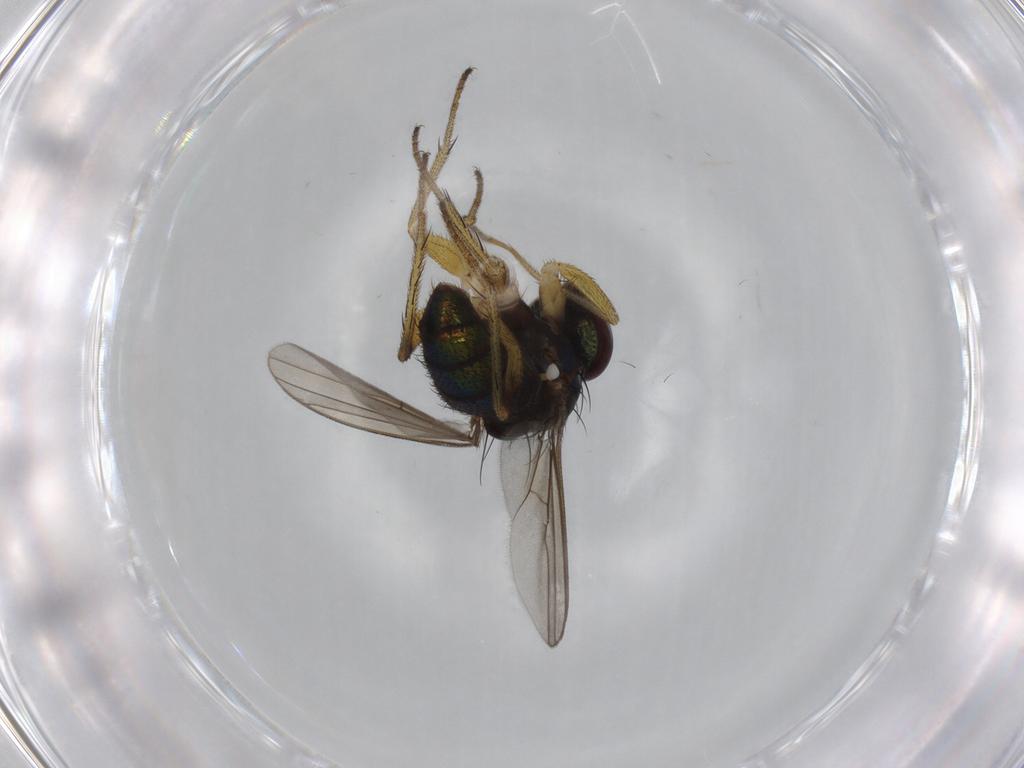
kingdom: Animalia
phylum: Arthropoda
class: Insecta
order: Diptera
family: Dolichopodidae
